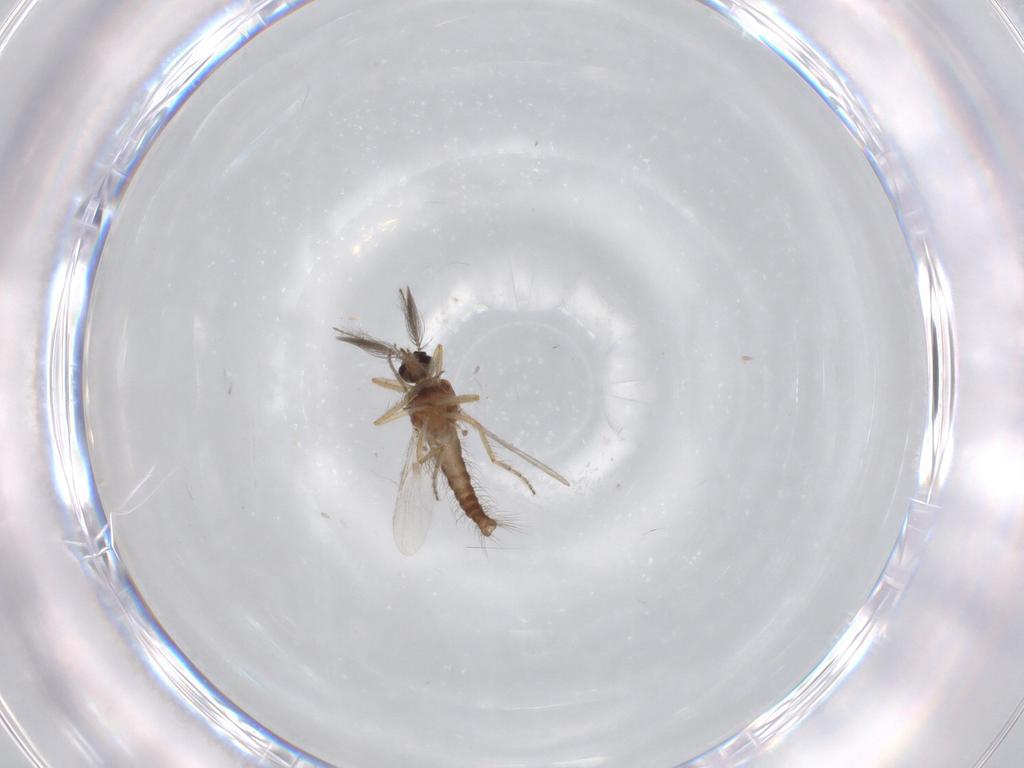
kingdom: Animalia
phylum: Arthropoda
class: Insecta
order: Diptera
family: Ceratopogonidae
